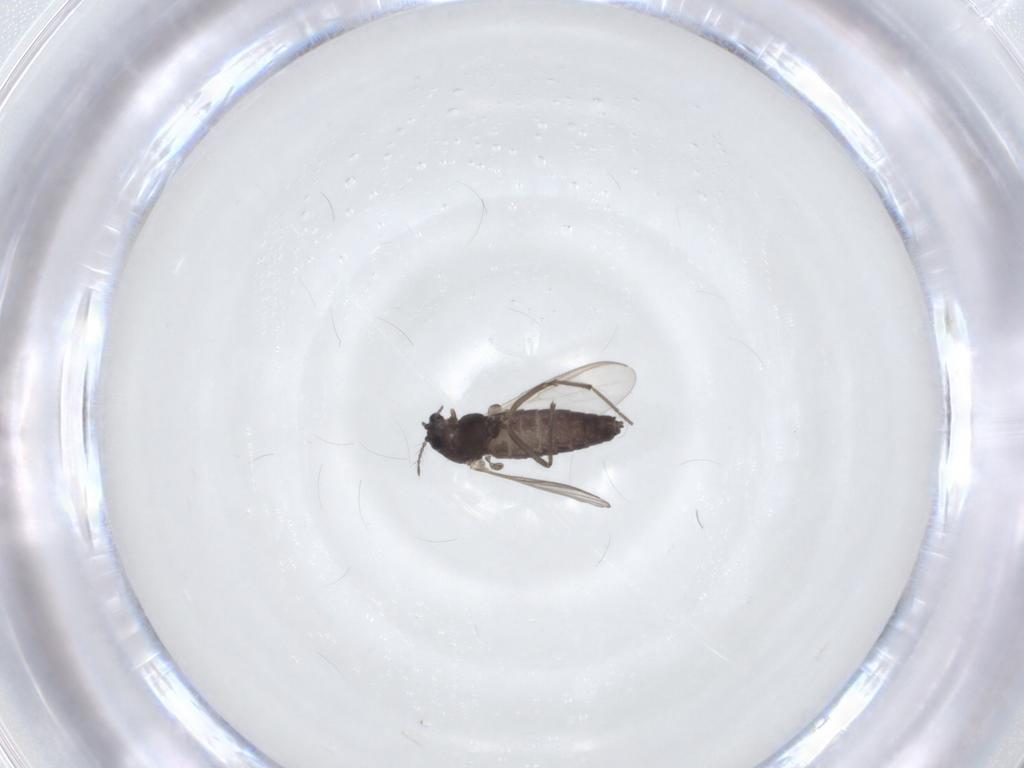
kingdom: Animalia
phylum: Arthropoda
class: Insecta
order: Diptera
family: Chironomidae
